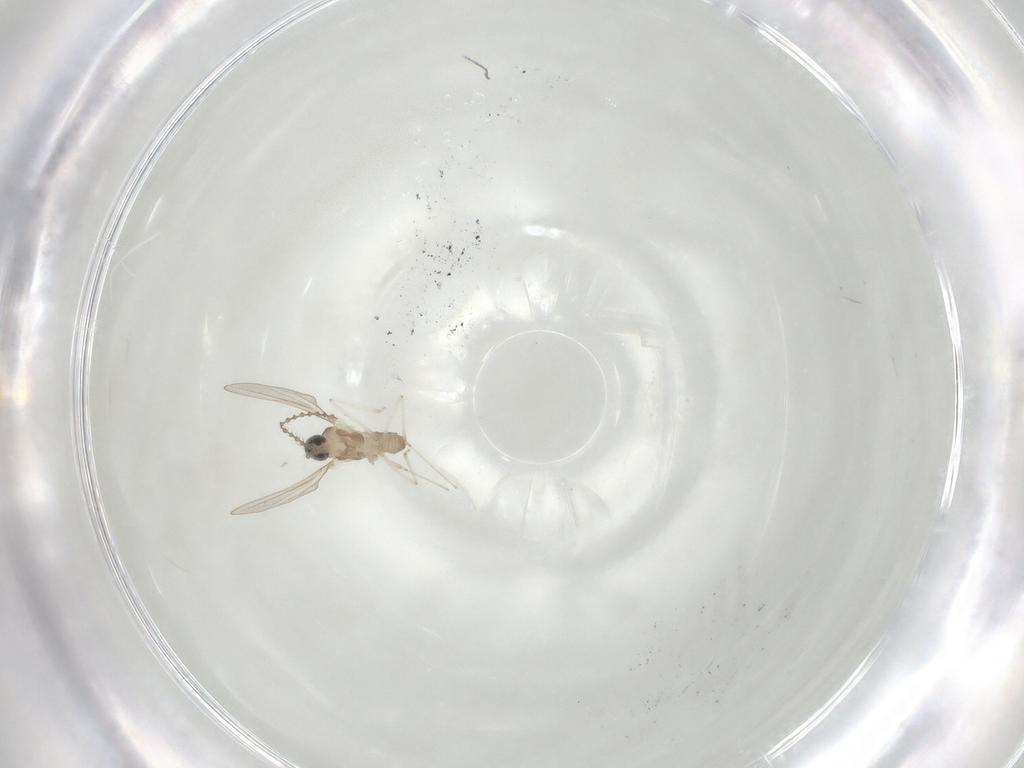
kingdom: Animalia
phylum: Arthropoda
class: Insecta
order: Diptera
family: Cecidomyiidae
